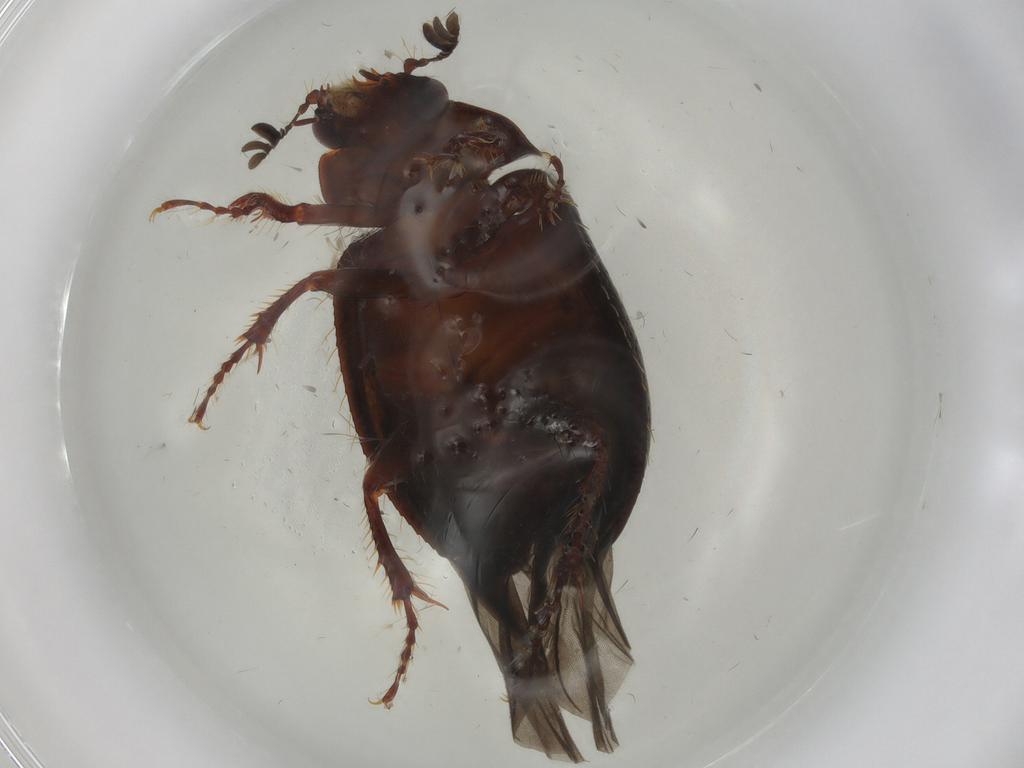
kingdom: Animalia
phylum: Arthropoda
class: Insecta
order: Coleoptera
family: Hybosoridae
